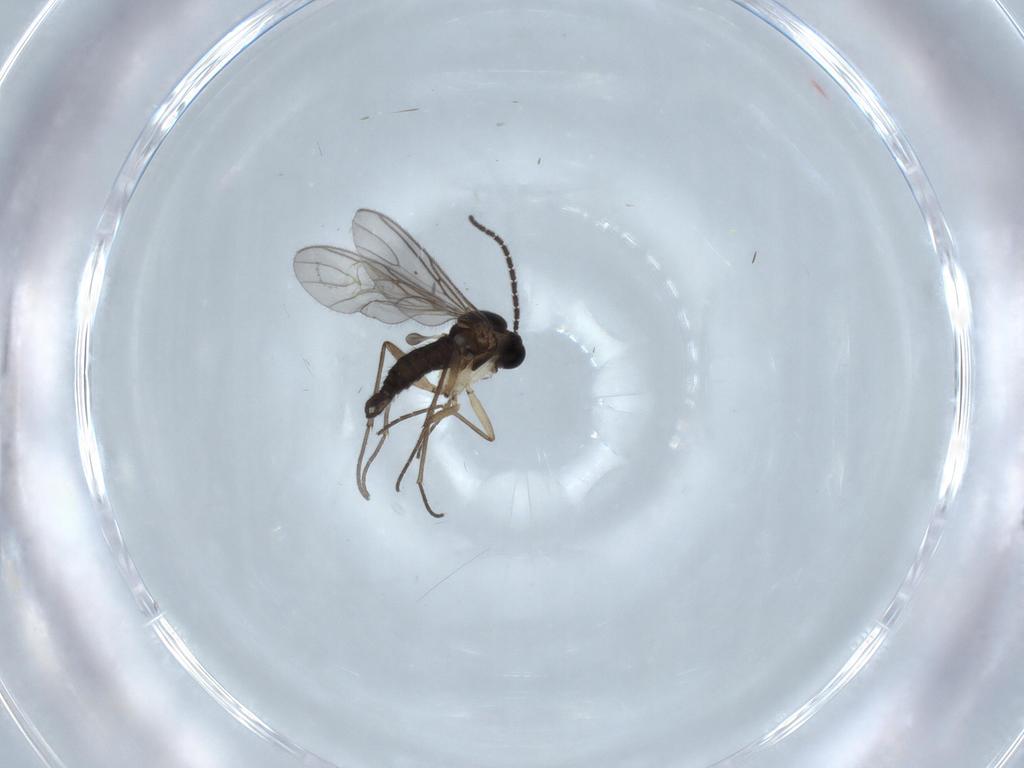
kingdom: Animalia
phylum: Arthropoda
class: Insecta
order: Diptera
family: Sciaridae
